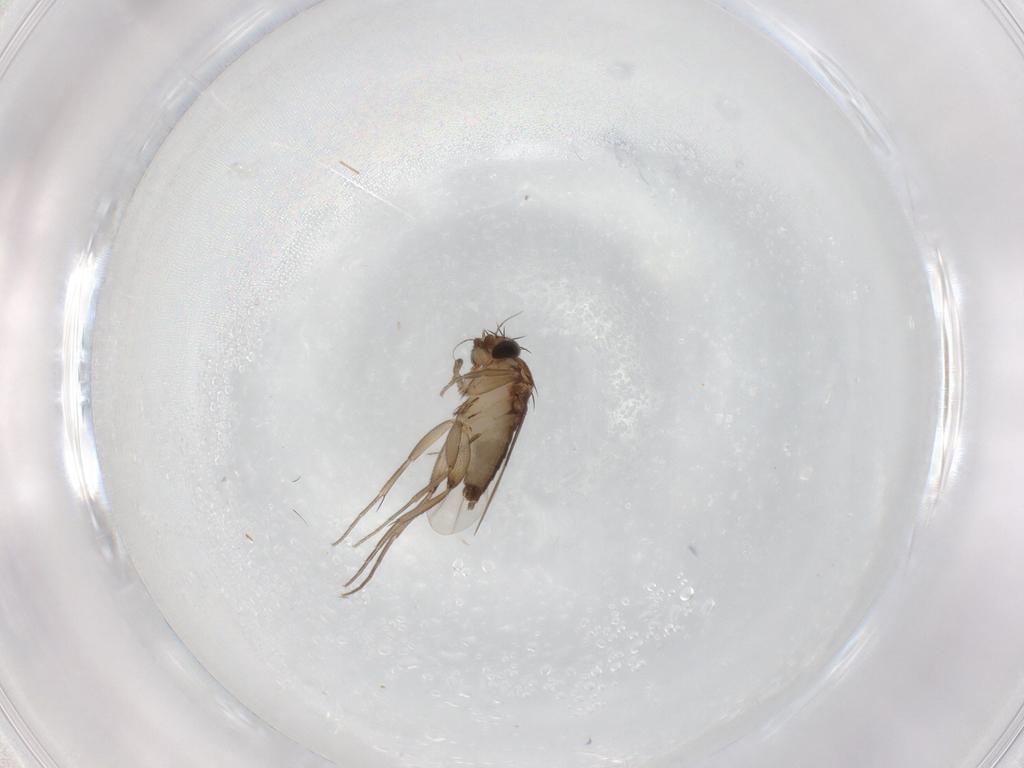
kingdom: Animalia
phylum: Arthropoda
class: Insecta
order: Diptera
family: Phoridae
